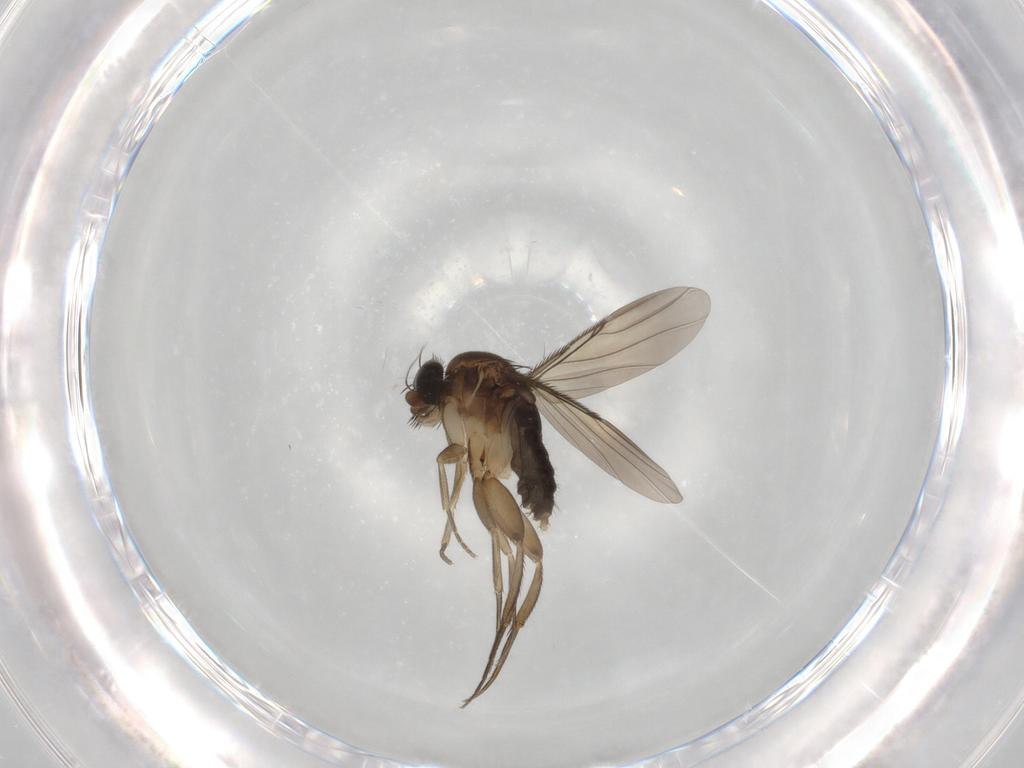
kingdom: Animalia
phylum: Arthropoda
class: Insecta
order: Diptera
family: Phoridae
